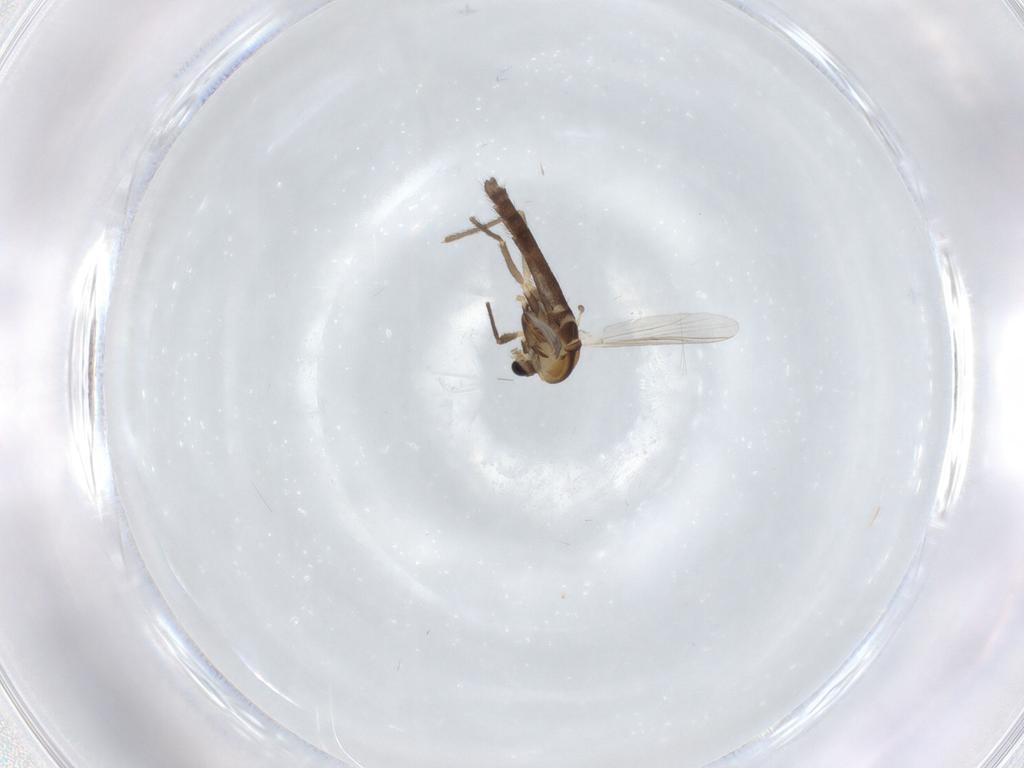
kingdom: Animalia
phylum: Arthropoda
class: Insecta
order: Diptera
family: Chironomidae
